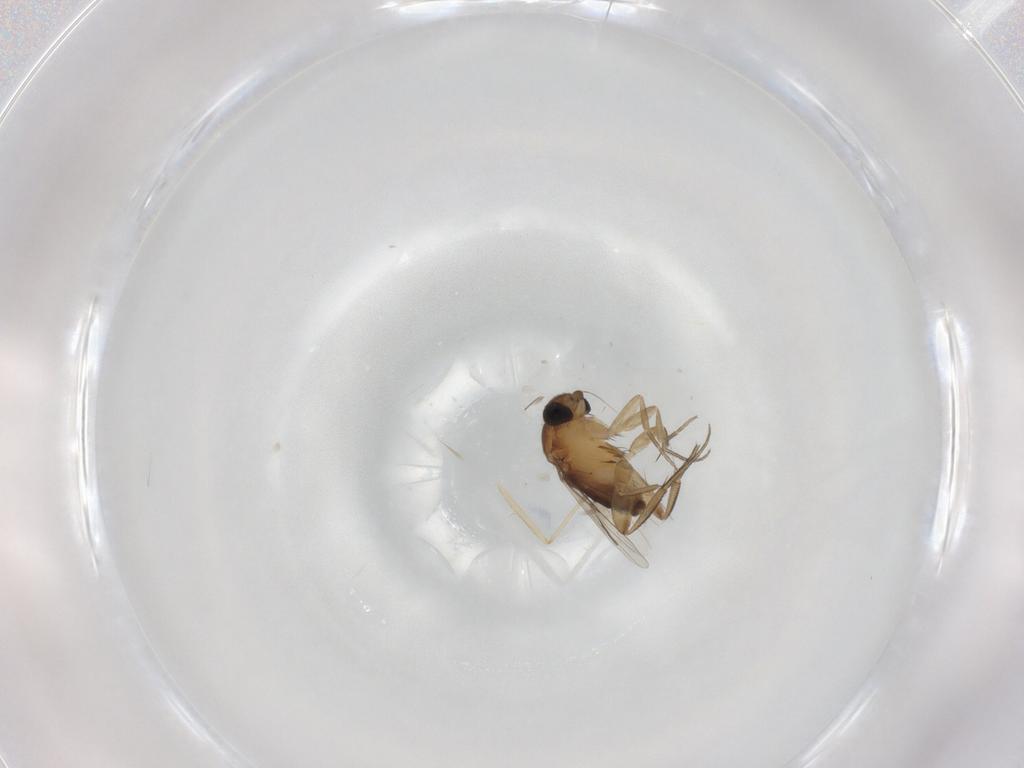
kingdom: Animalia
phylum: Arthropoda
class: Insecta
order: Diptera
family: Cecidomyiidae
